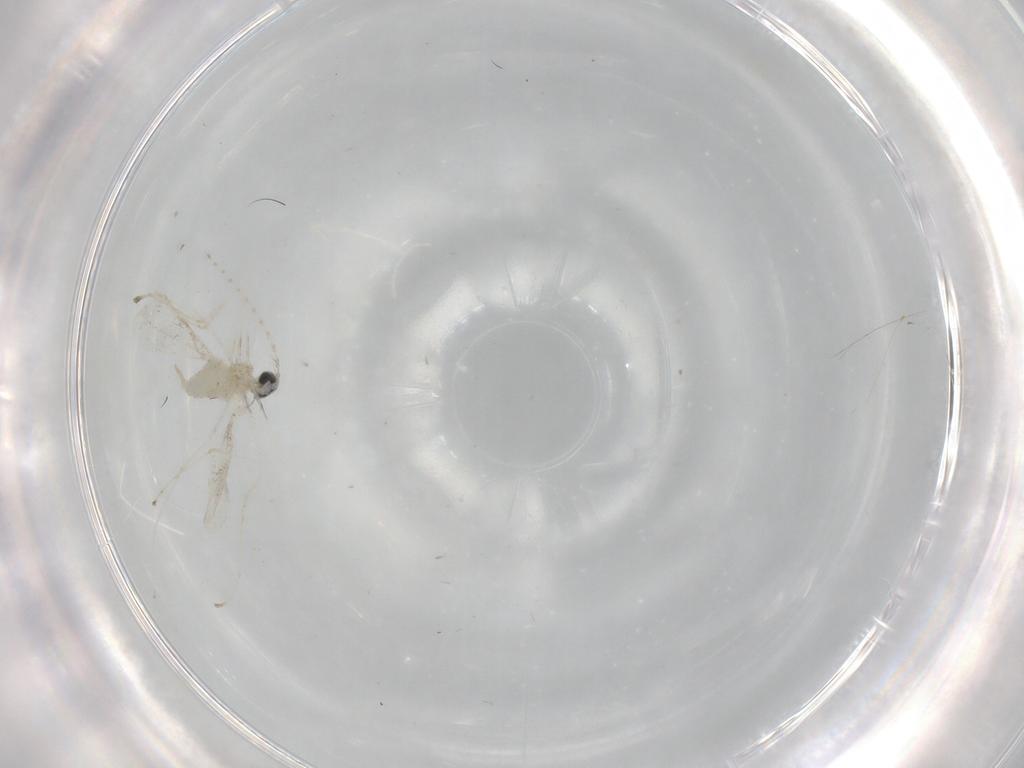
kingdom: Animalia
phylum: Arthropoda
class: Insecta
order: Diptera
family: Cecidomyiidae
